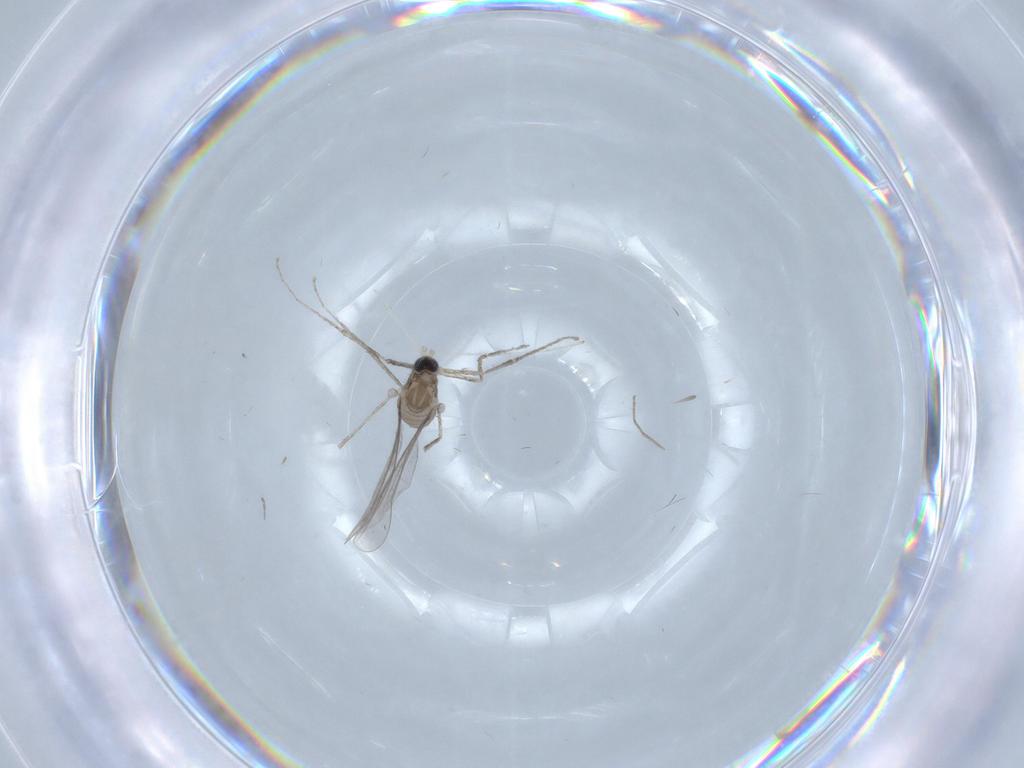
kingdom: Animalia
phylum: Arthropoda
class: Insecta
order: Diptera
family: Cecidomyiidae
